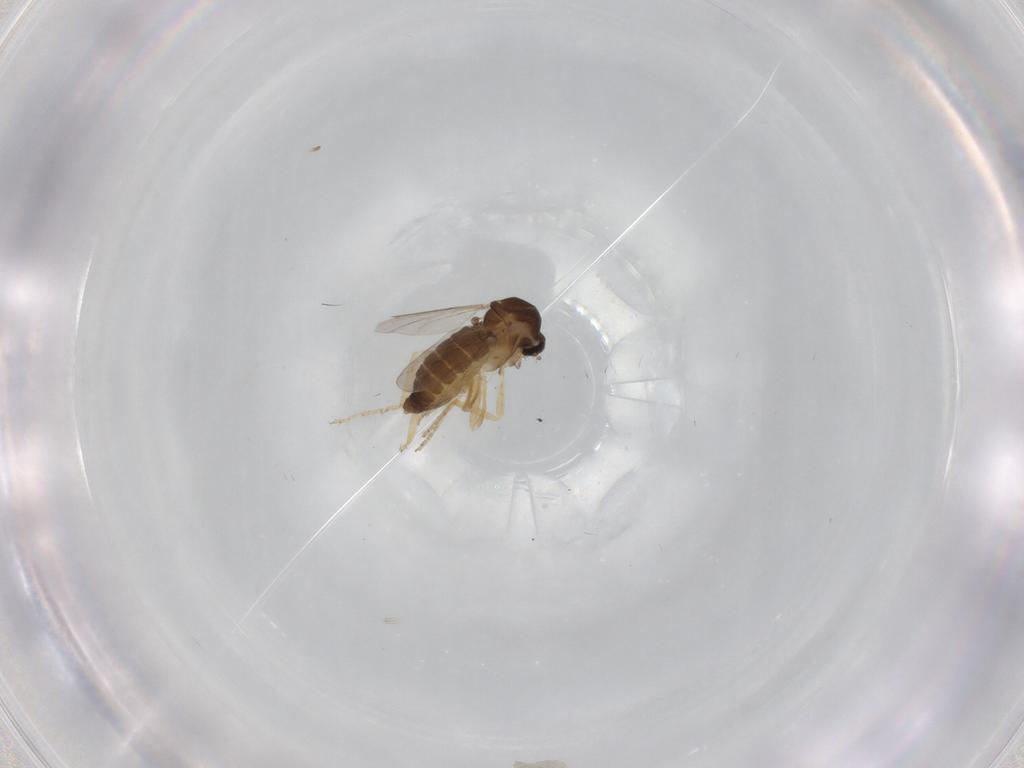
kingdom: Animalia
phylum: Arthropoda
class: Insecta
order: Diptera
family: Ceratopogonidae
